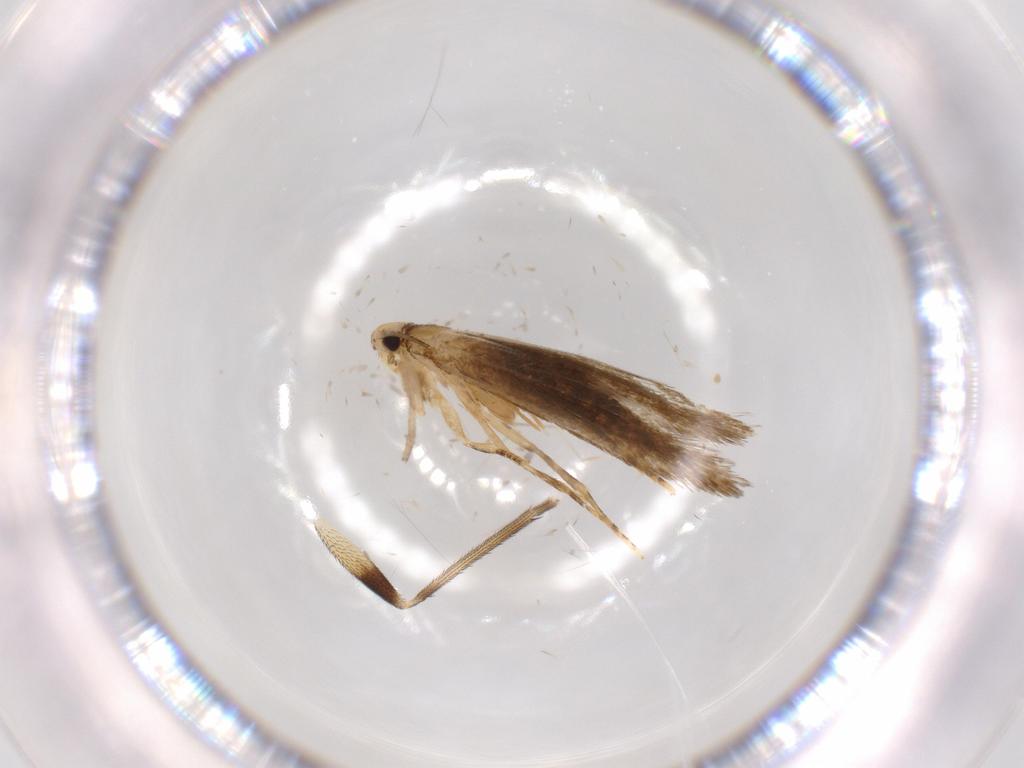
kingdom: Animalia
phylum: Arthropoda
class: Insecta
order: Lepidoptera
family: Tineidae
